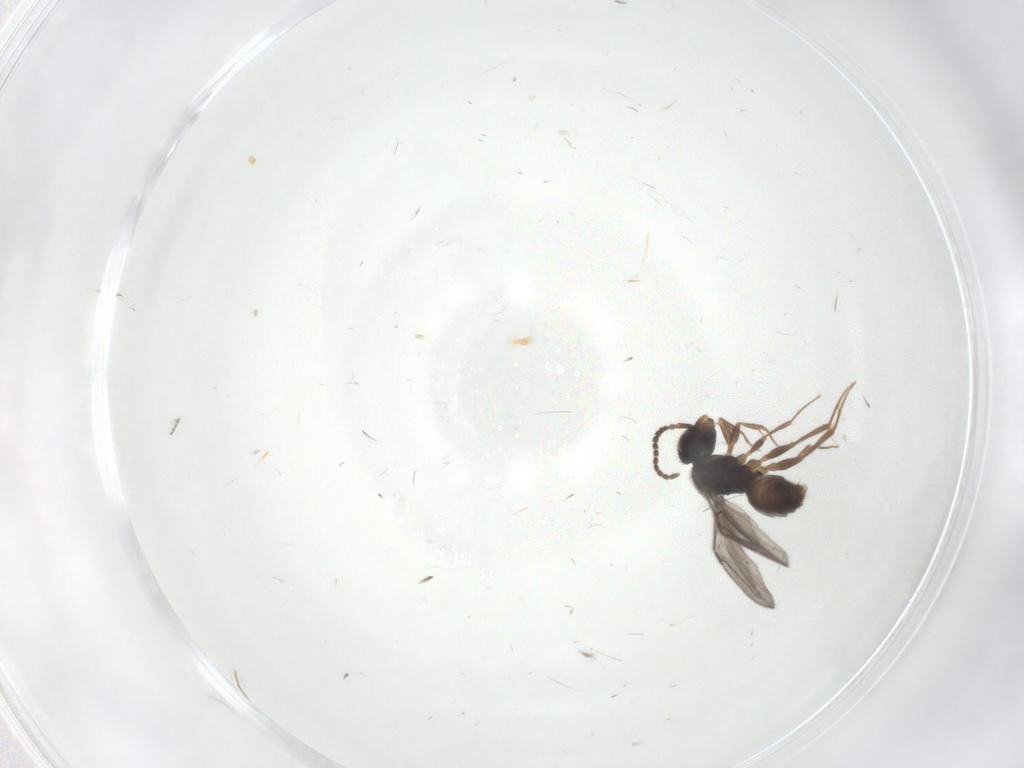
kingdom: Animalia
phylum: Arthropoda
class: Insecta
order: Hymenoptera
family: Bethylidae
